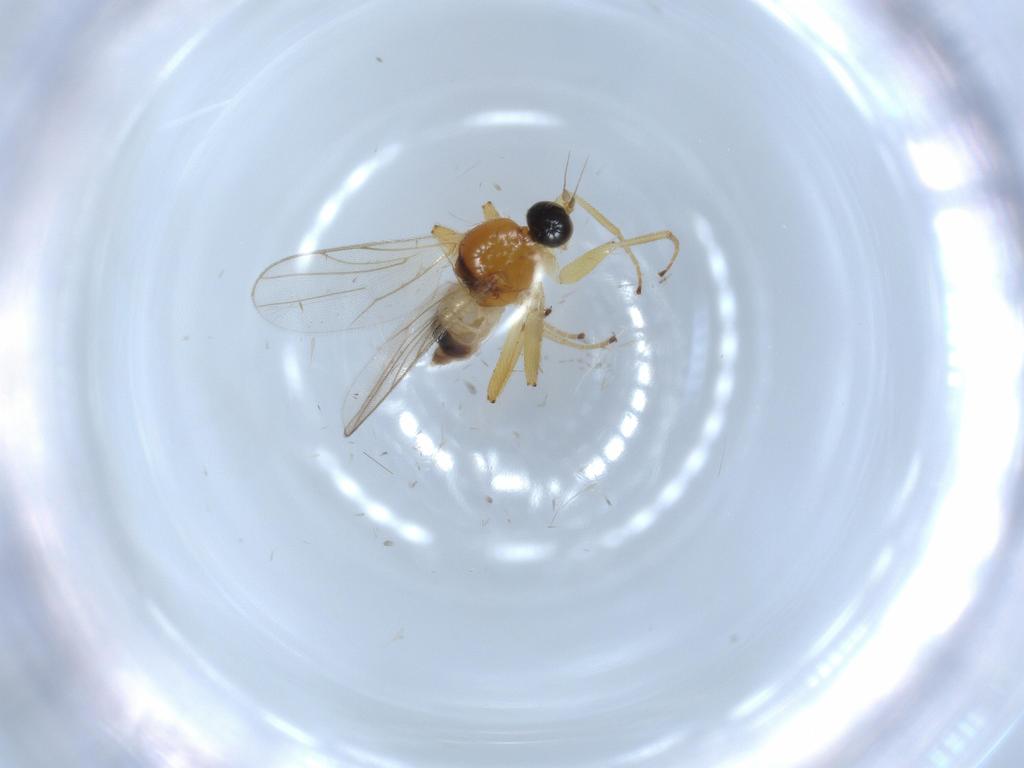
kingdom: Animalia
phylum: Arthropoda
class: Insecta
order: Diptera
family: Hybotidae
